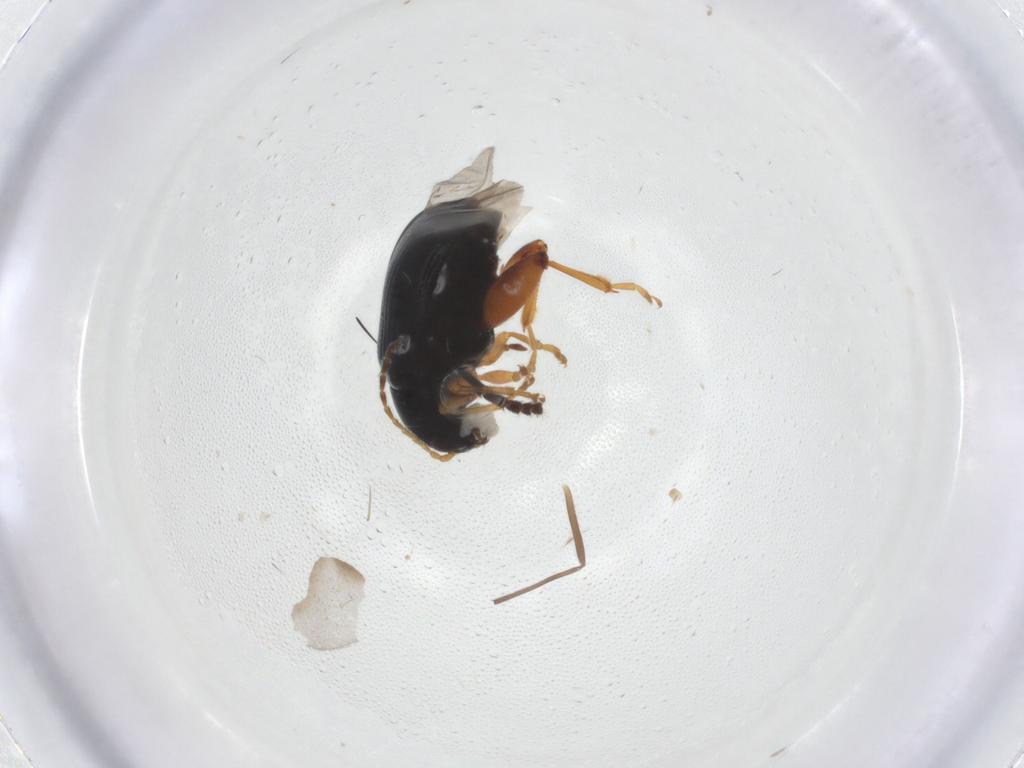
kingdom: Animalia
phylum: Arthropoda
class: Insecta
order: Coleoptera
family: Chrysomelidae
